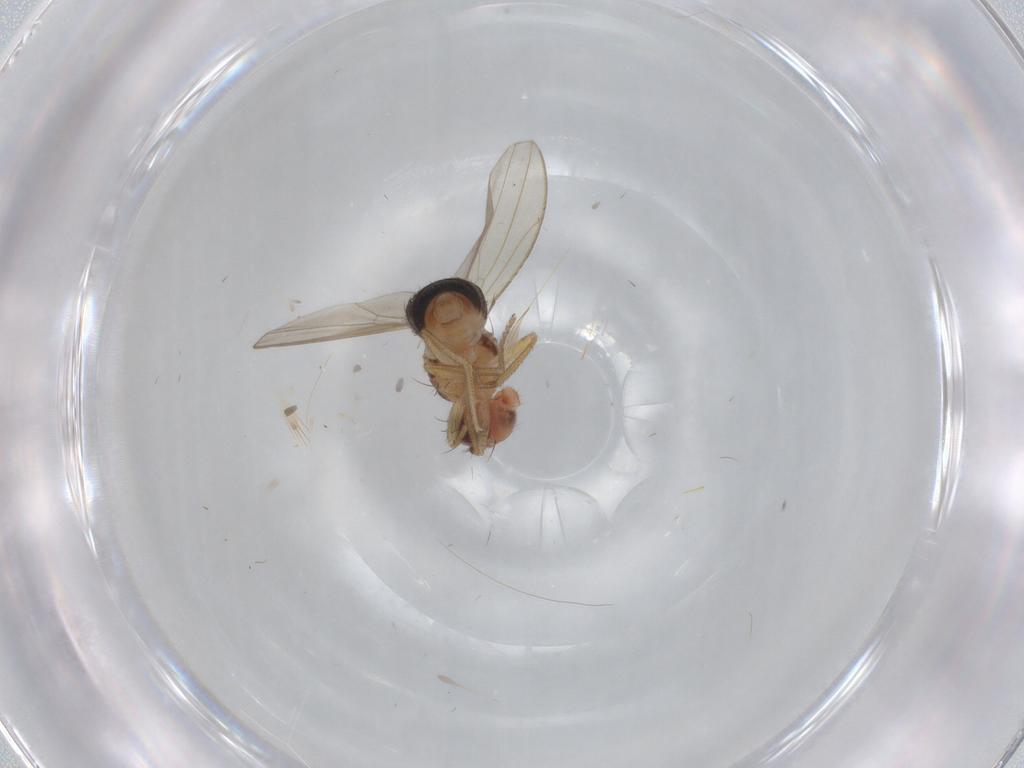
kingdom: Animalia
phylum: Arthropoda
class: Insecta
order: Diptera
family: Drosophilidae
